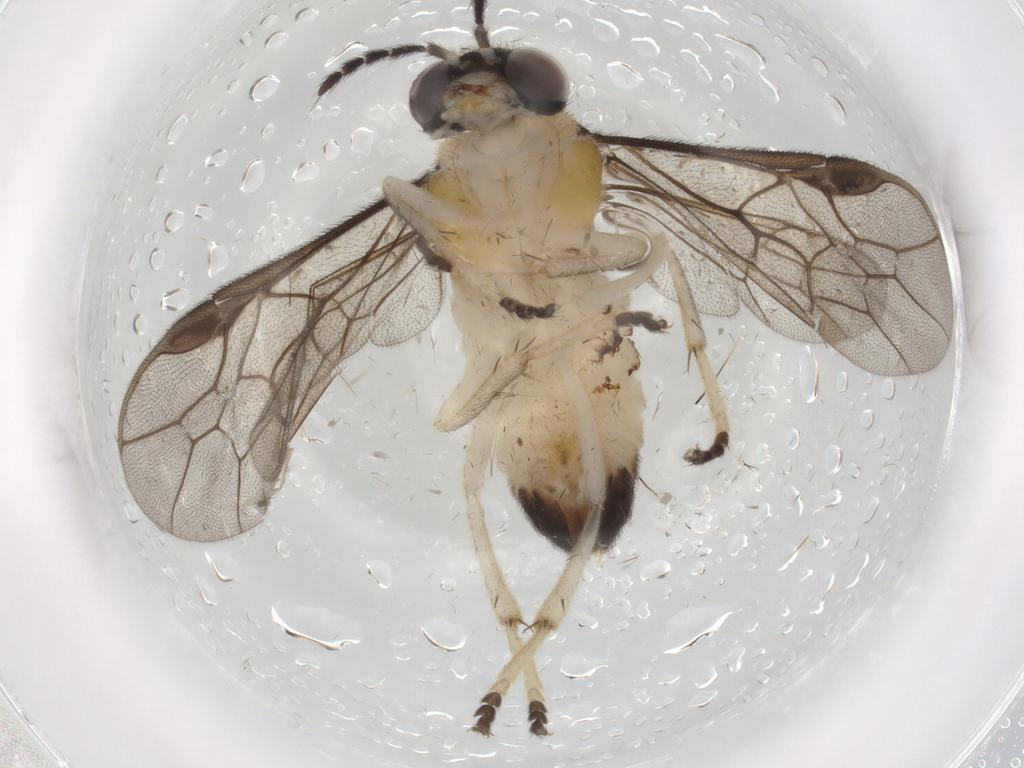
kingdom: Animalia
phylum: Arthropoda
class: Insecta
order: Hymenoptera
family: Pergidae
